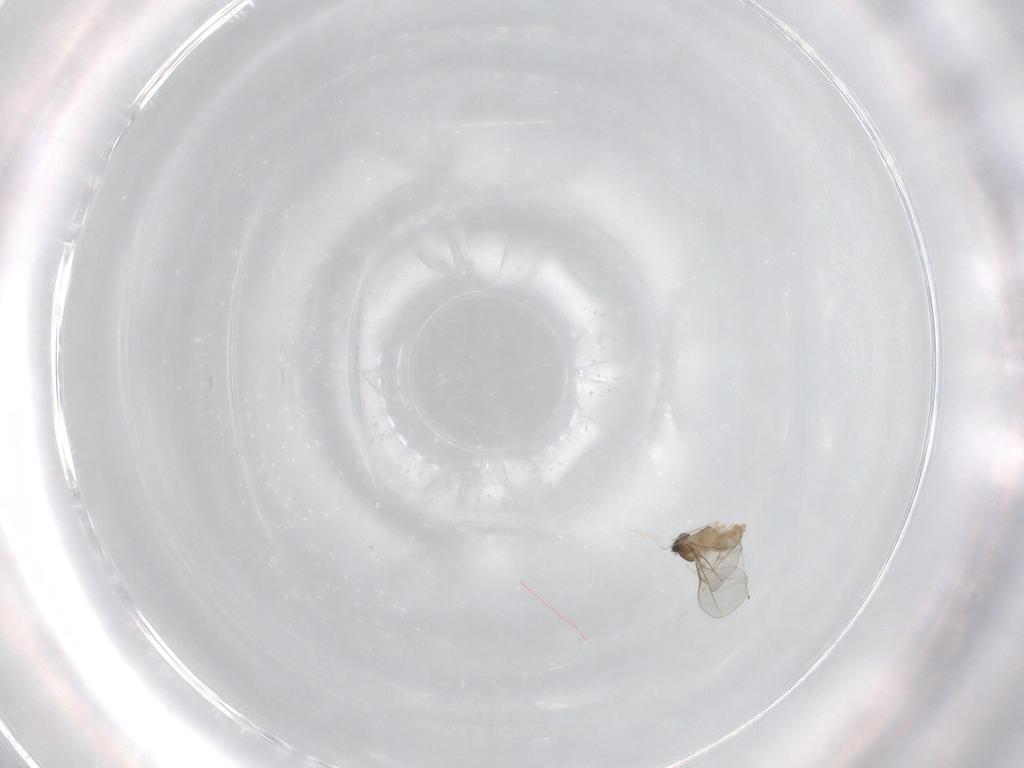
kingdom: Animalia
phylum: Arthropoda
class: Insecta
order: Diptera
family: Cecidomyiidae
